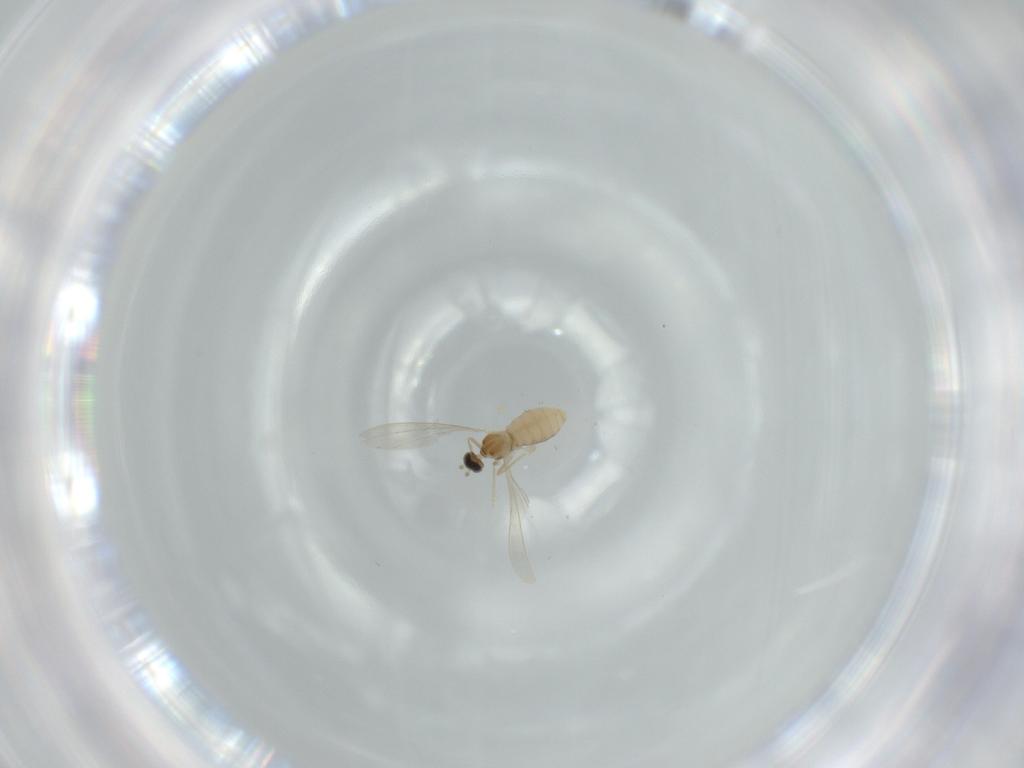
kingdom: Animalia
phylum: Arthropoda
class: Insecta
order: Diptera
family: Cecidomyiidae
